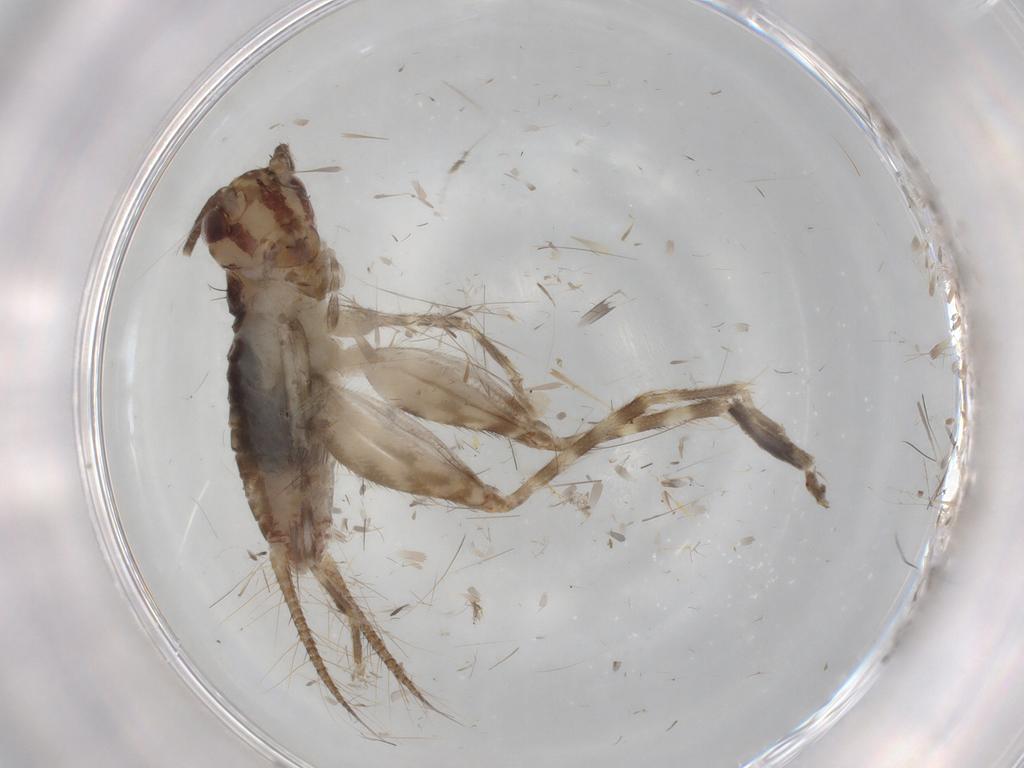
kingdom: Animalia
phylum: Arthropoda
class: Insecta
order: Orthoptera
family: Gryllidae
